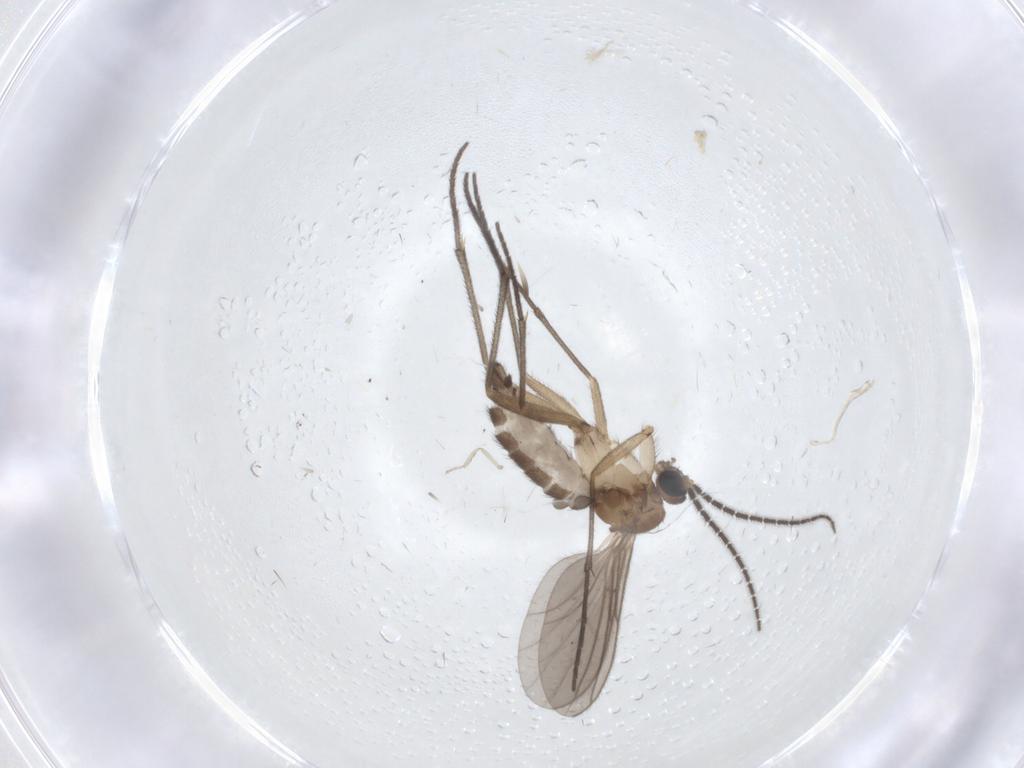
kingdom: Animalia
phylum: Arthropoda
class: Insecta
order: Diptera
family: Sciaridae
